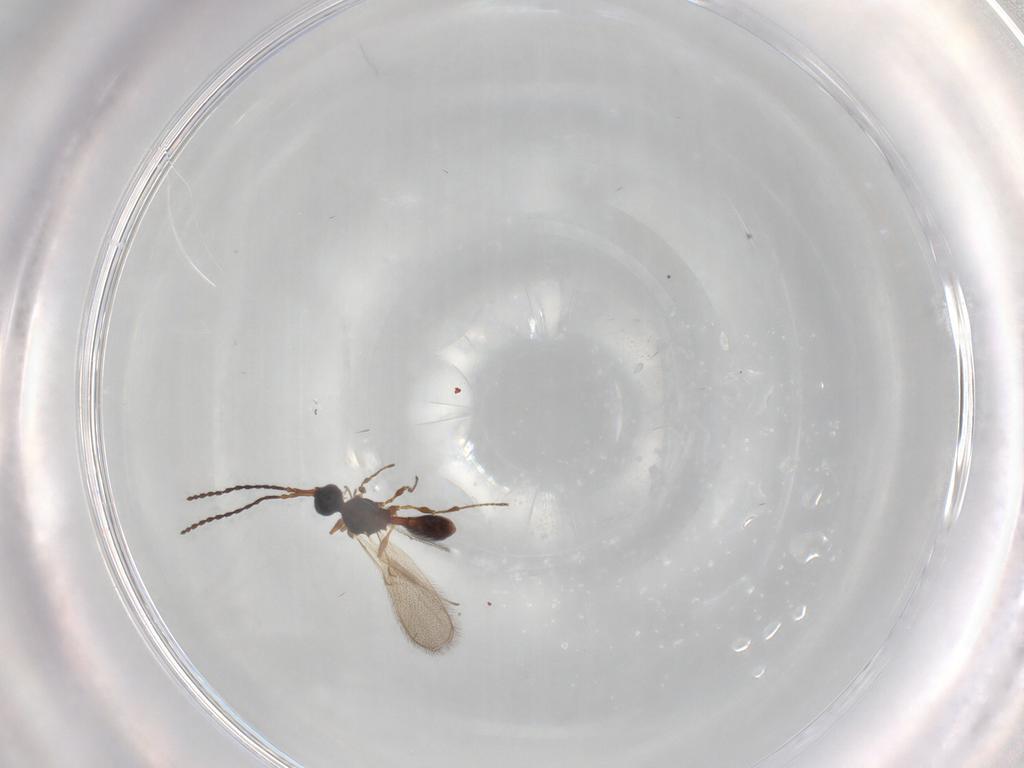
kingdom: Animalia
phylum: Arthropoda
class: Insecta
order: Hymenoptera
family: Diapriidae
